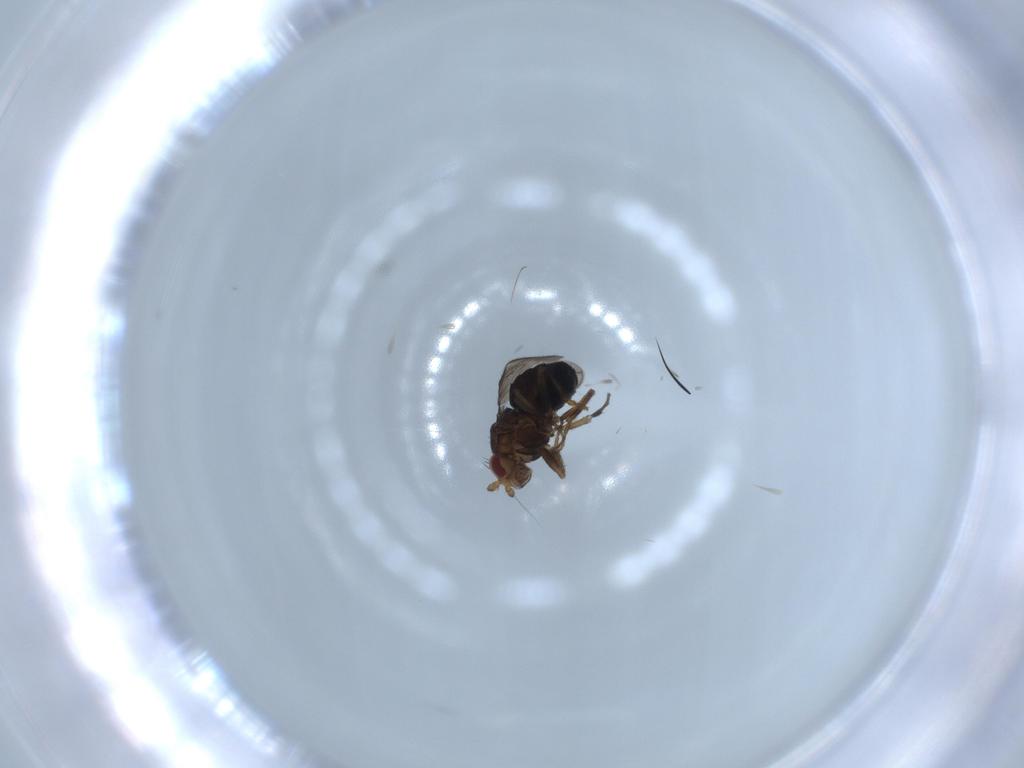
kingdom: Animalia
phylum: Arthropoda
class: Insecta
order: Diptera
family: Sphaeroceridae
